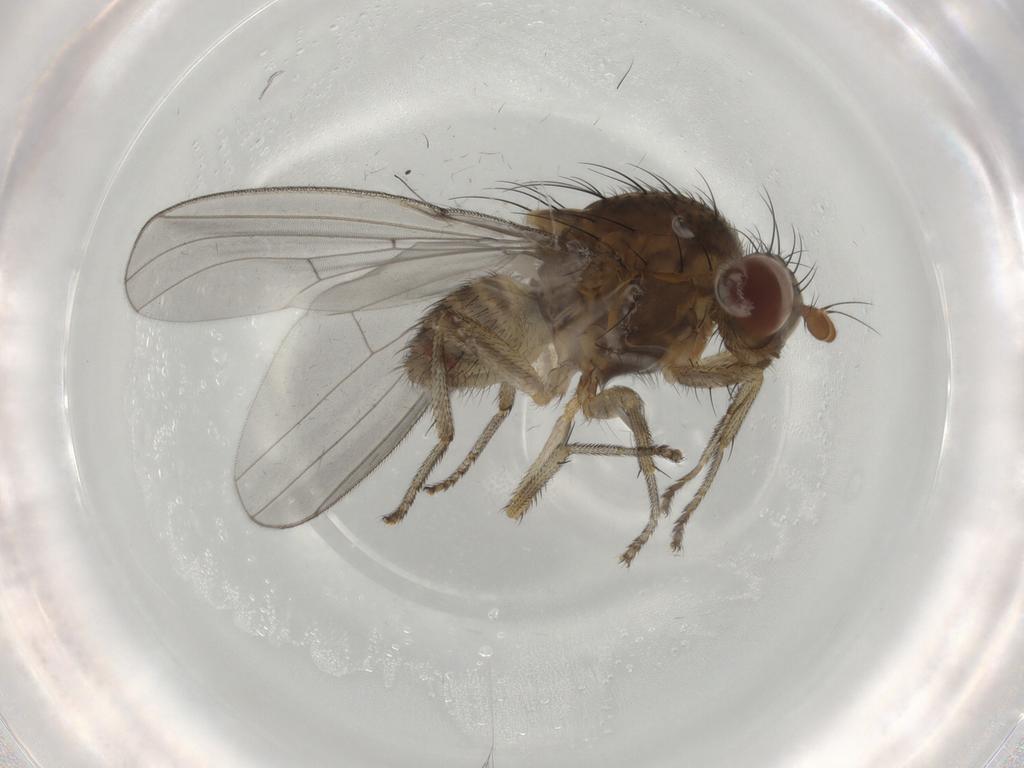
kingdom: Animalia
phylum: Arthropoda
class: Insecta
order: Diptera
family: Lauxaniidae
